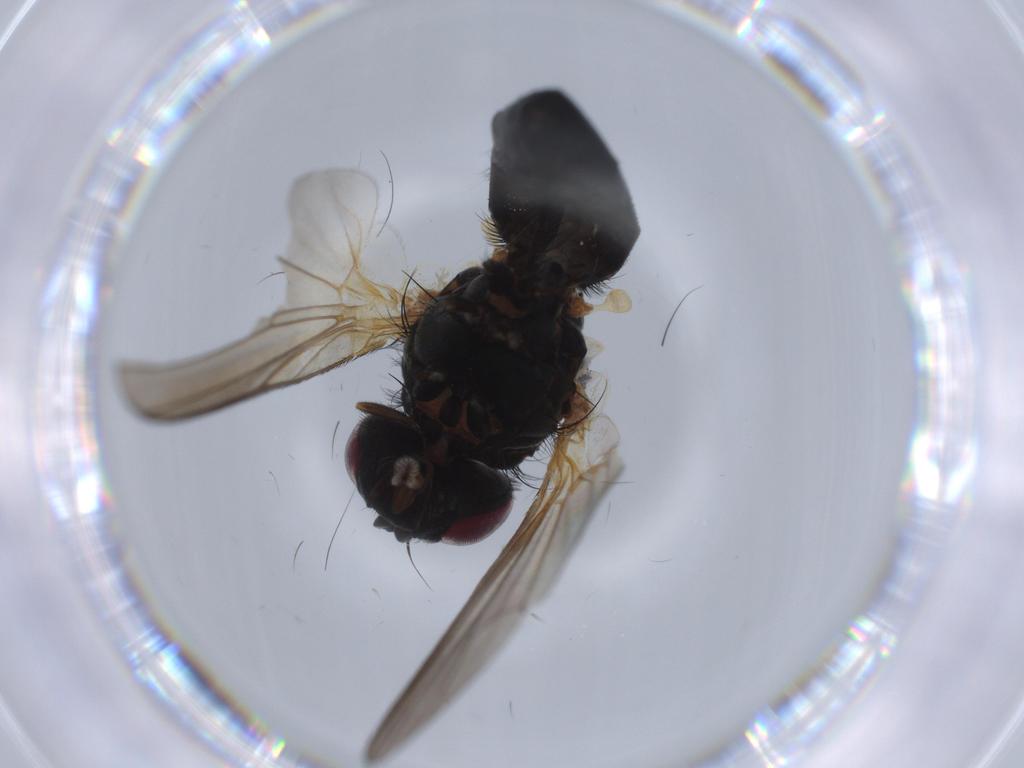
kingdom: Animalia
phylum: Arthropoda
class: Insecta
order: Diptera
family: Fannia
